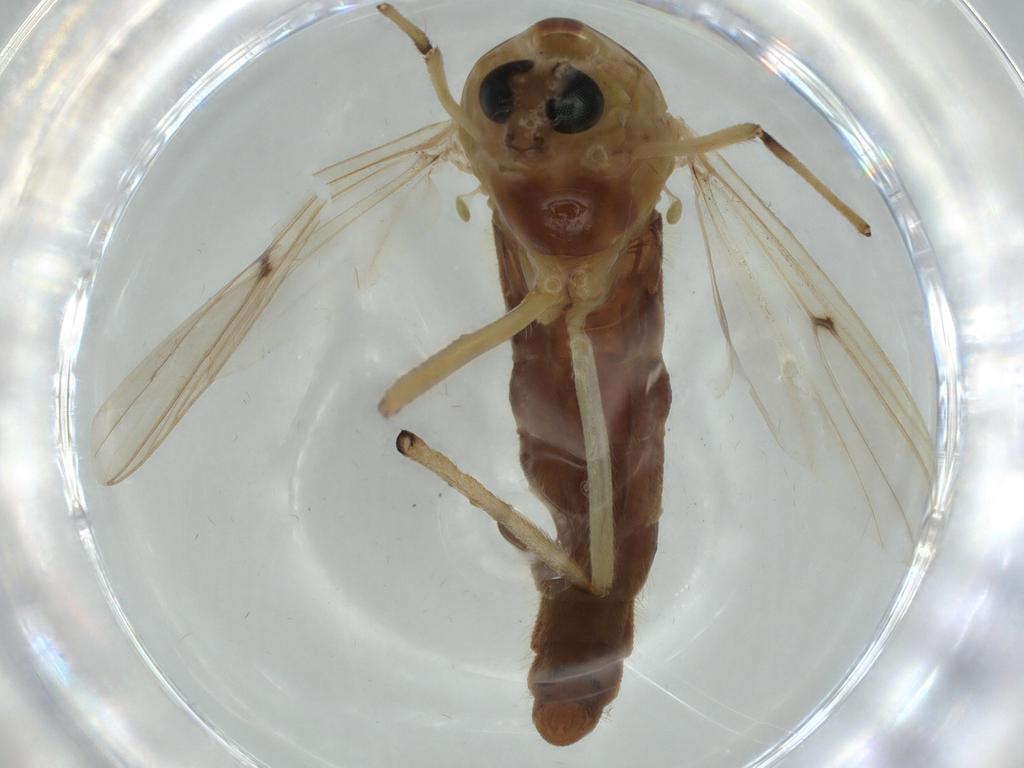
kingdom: Animalia
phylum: Arthropoda
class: Insecta
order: Diptera
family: Chironomidae
